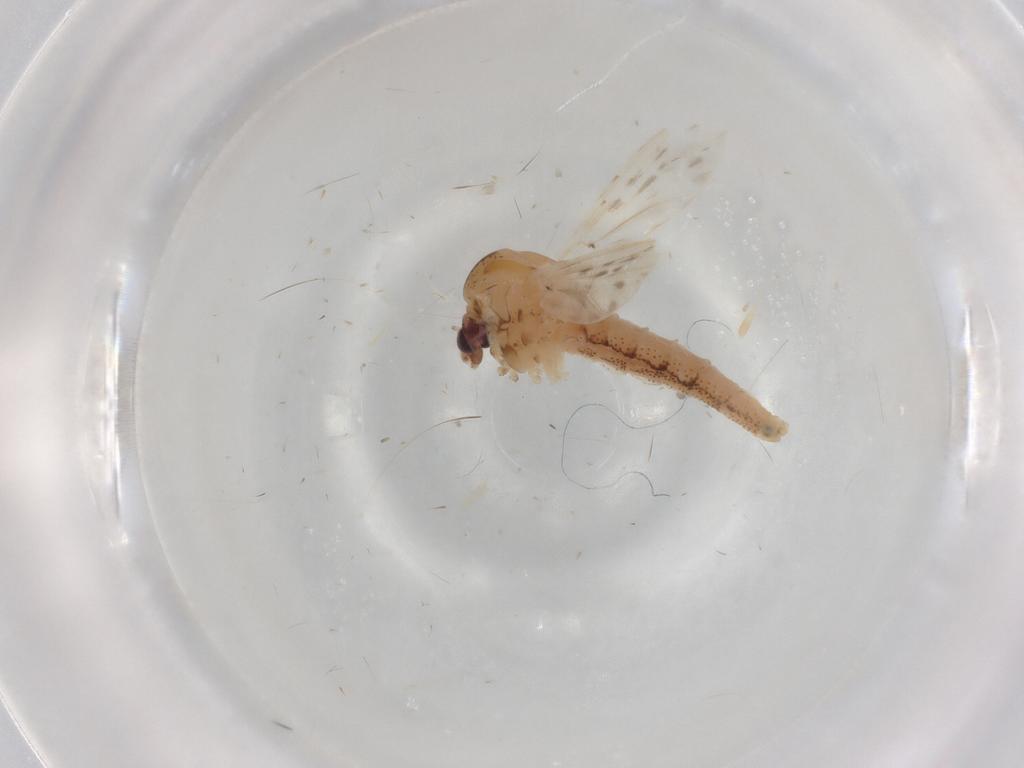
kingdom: Animalia
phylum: Arthropoda
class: Insecta
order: Diptera
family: Chaoboridae
